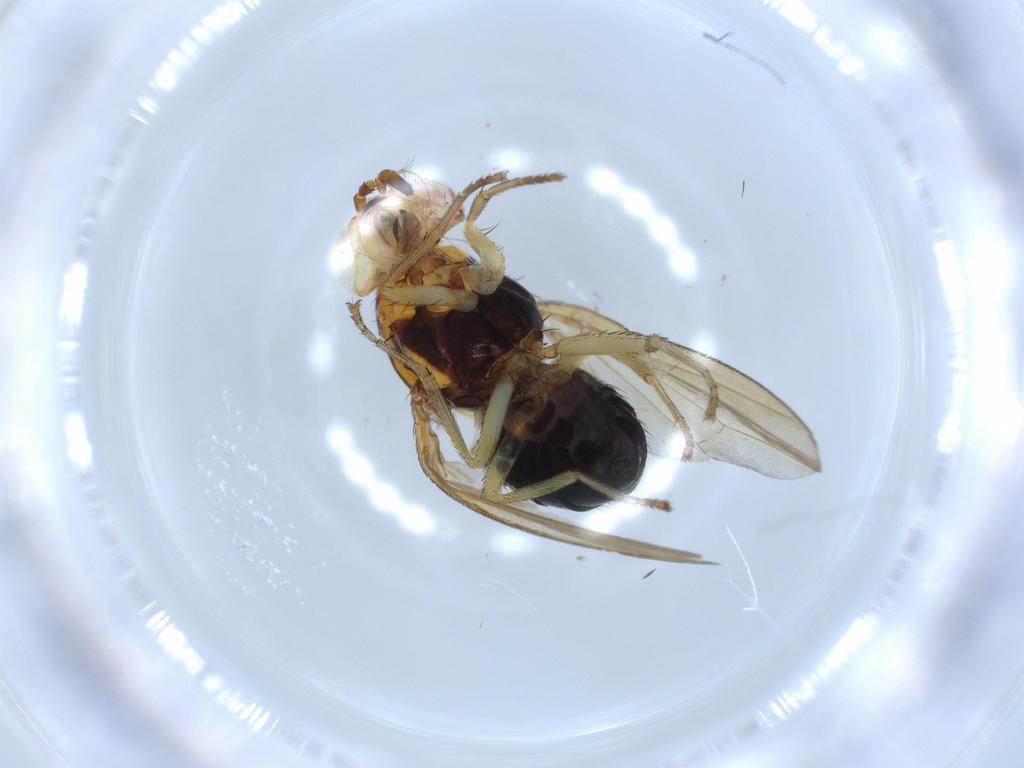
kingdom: Animalia
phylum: Arthropoda
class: Insecta
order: Diptera
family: Lauxaniidae
